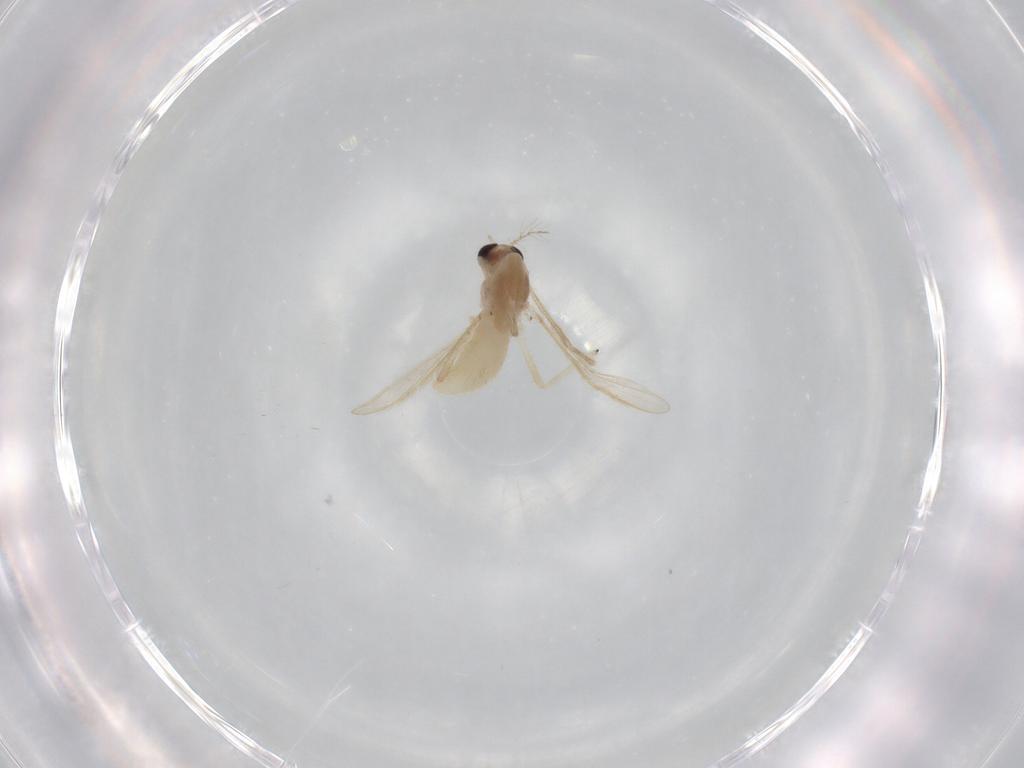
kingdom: Animalia
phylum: Arthropoda
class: Insecta
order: Diptera
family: Chironomidae
